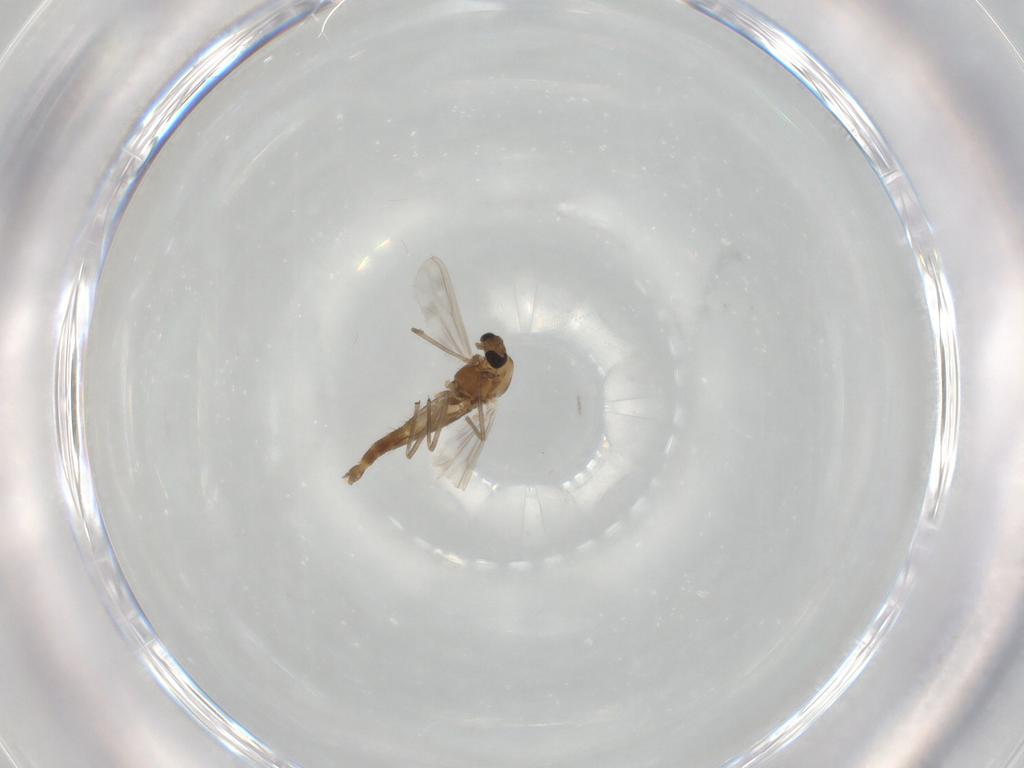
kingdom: Animalia
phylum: Arthropoda
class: Insecta
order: Diptera
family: Chironomidae
